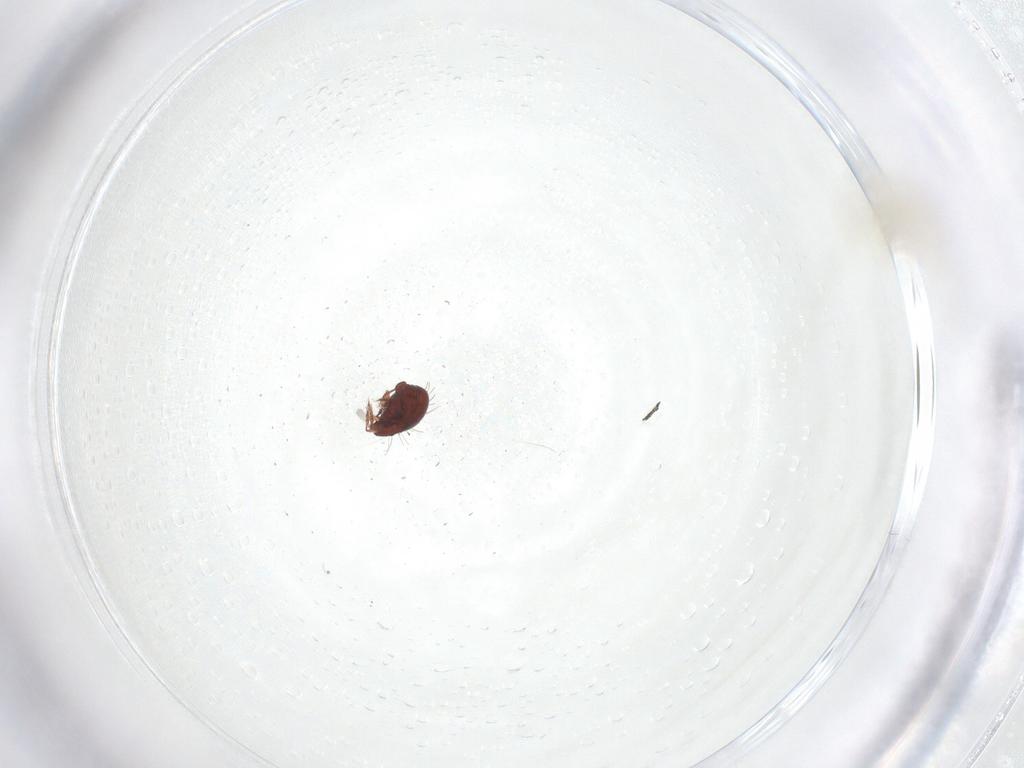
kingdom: Animalia
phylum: Arthropoda
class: Arachnida
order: Sarcoptiformes
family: Caloppiidae
